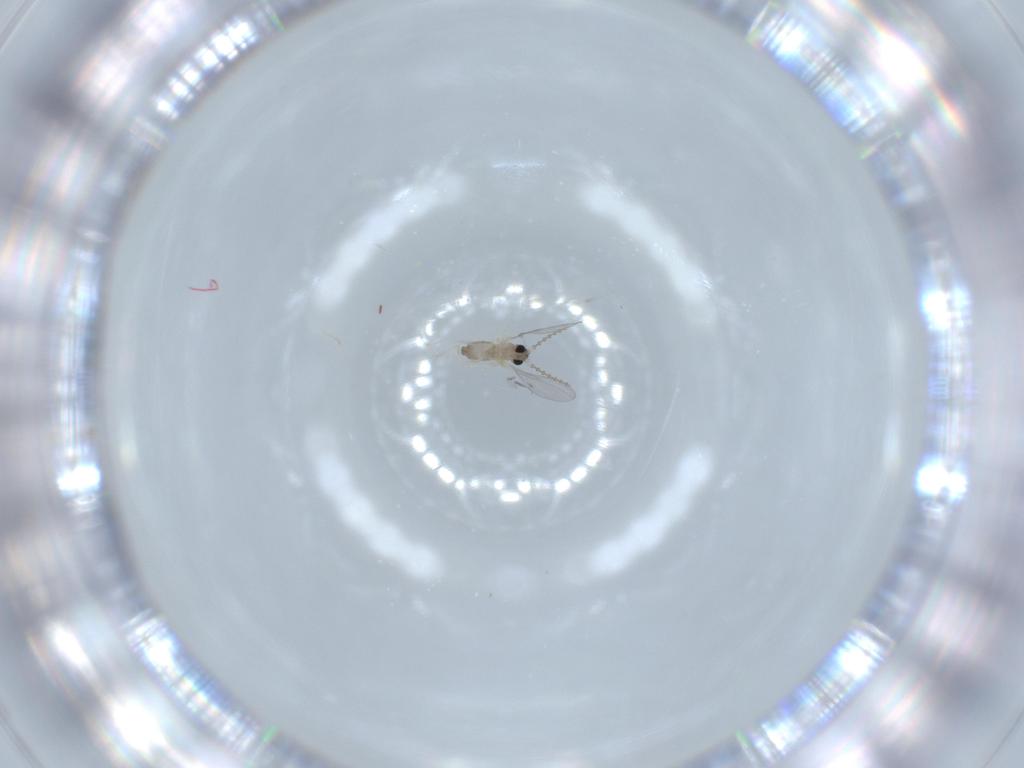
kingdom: Animalia
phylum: Arthropoda
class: Insecta
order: Diptera
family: Cecidomyiidae
